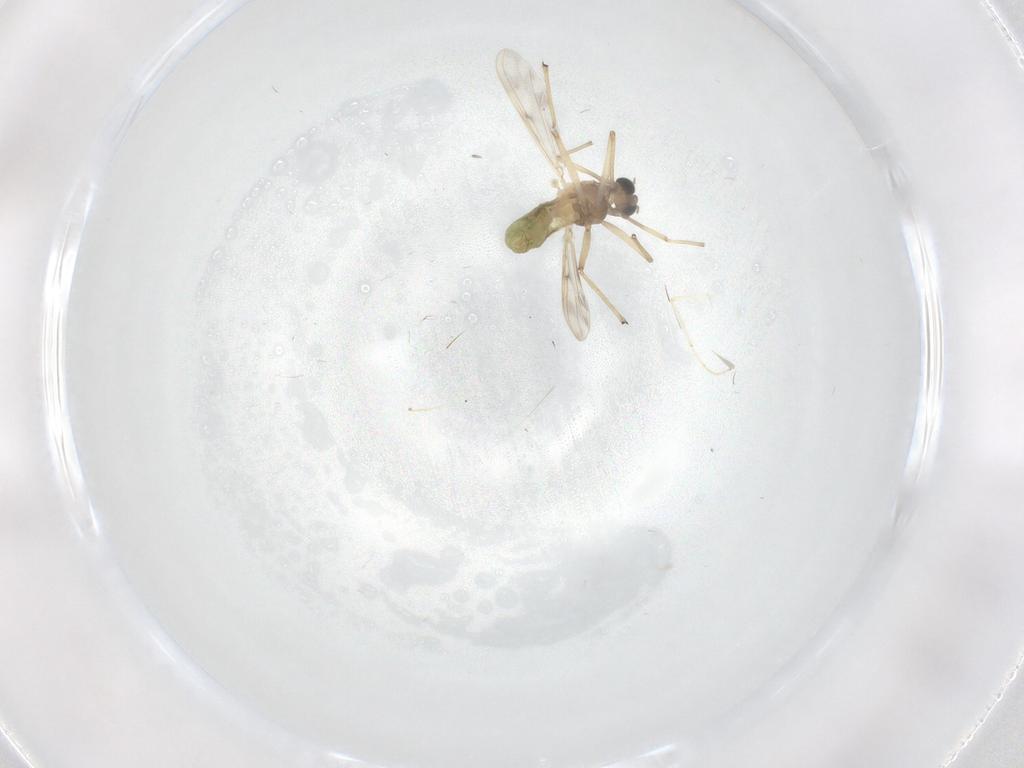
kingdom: Animalia
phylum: Arthropoda
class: Insecta
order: Diptera
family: Chironomidae
